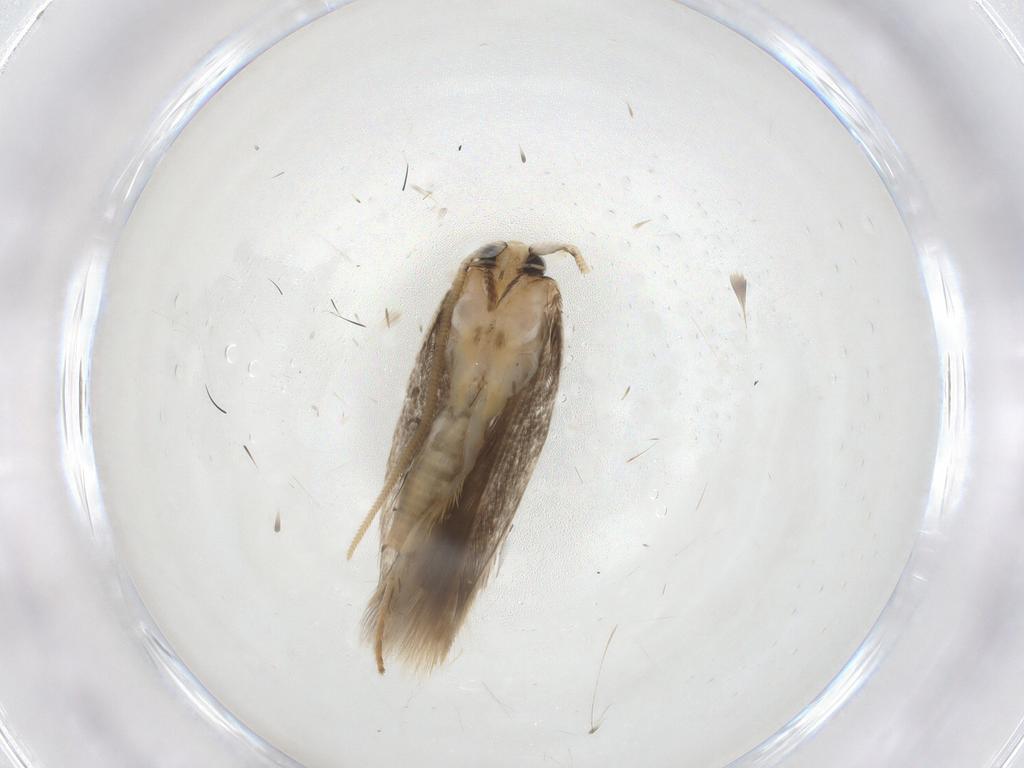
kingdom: Animalia
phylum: Arthropoda
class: Insecta
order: Lepidoptera
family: Opostegidae
